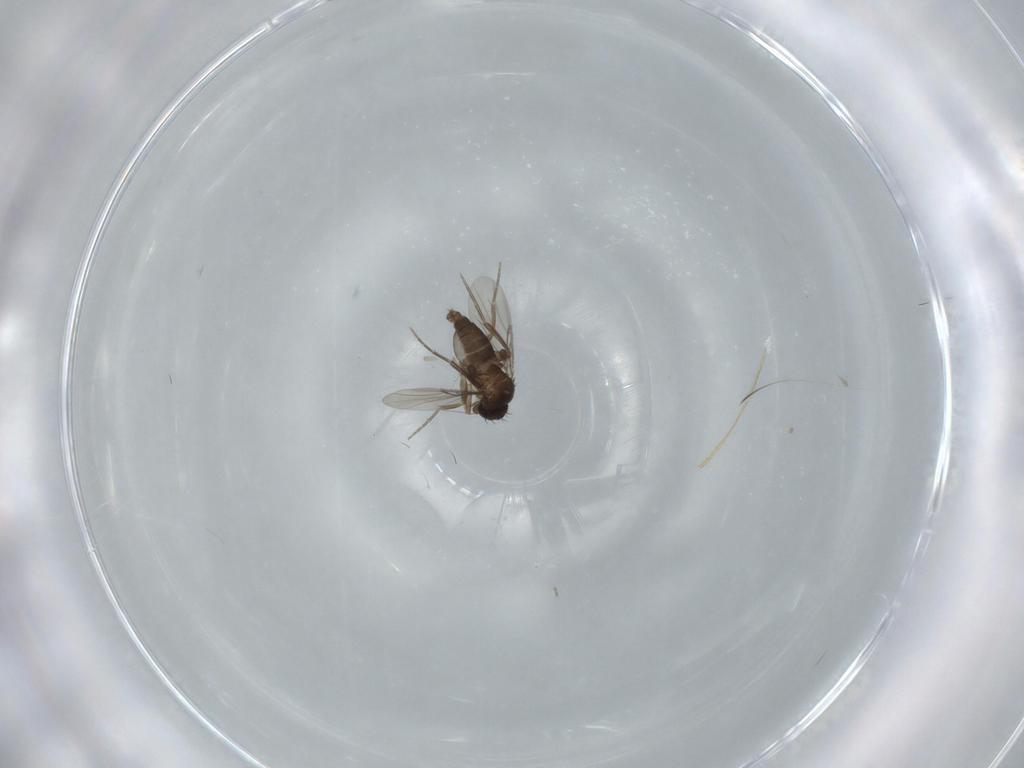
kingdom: Animalia
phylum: Arthropoda
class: Insecta
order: Diptera
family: Phoridae
